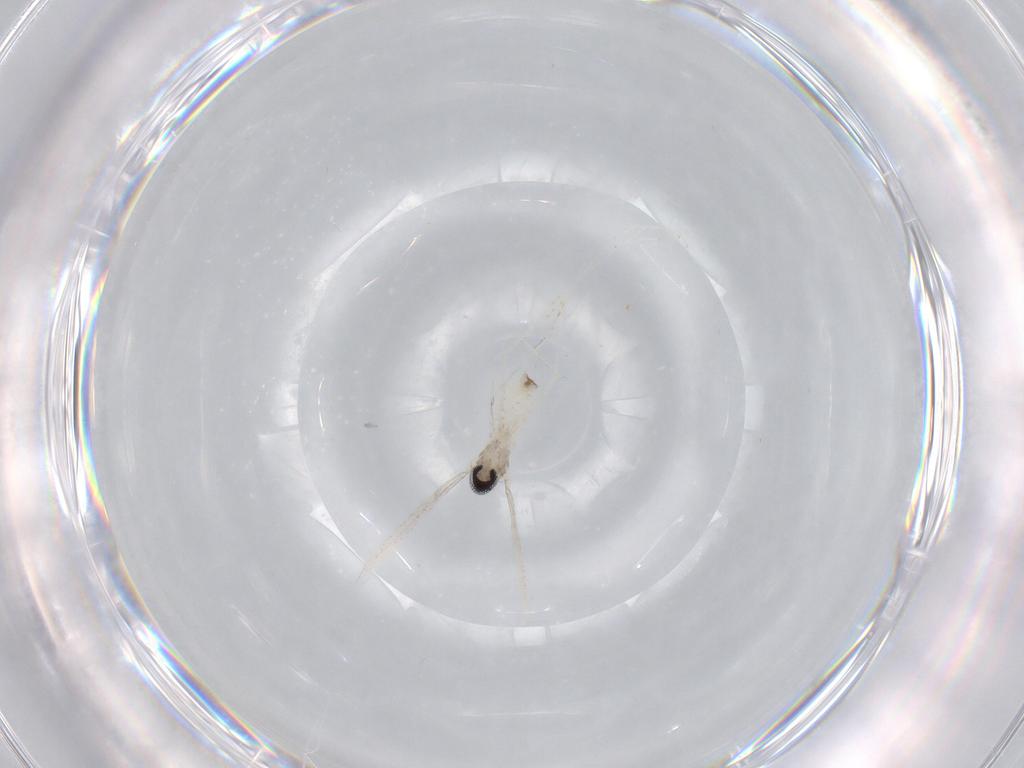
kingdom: Animalia
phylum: Arthropoda
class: Insecta
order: Diptera
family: Cecidomyiidae
